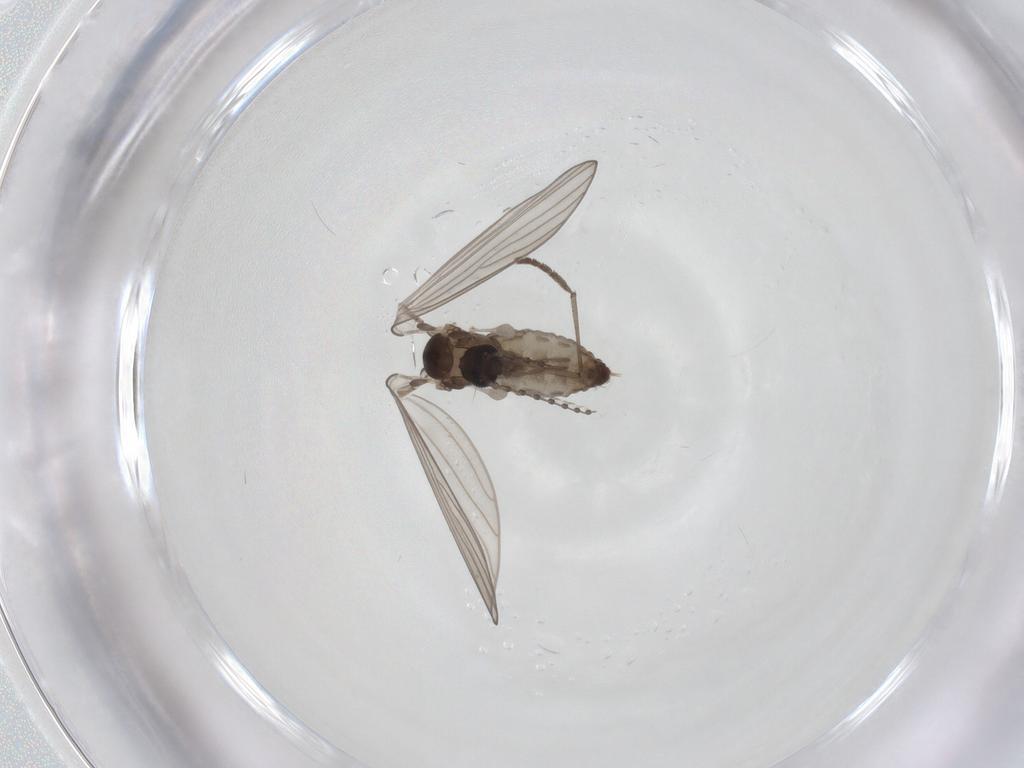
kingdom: Animalia
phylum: Arthropoda
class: Insecta
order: Diptera
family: Psychodidae
